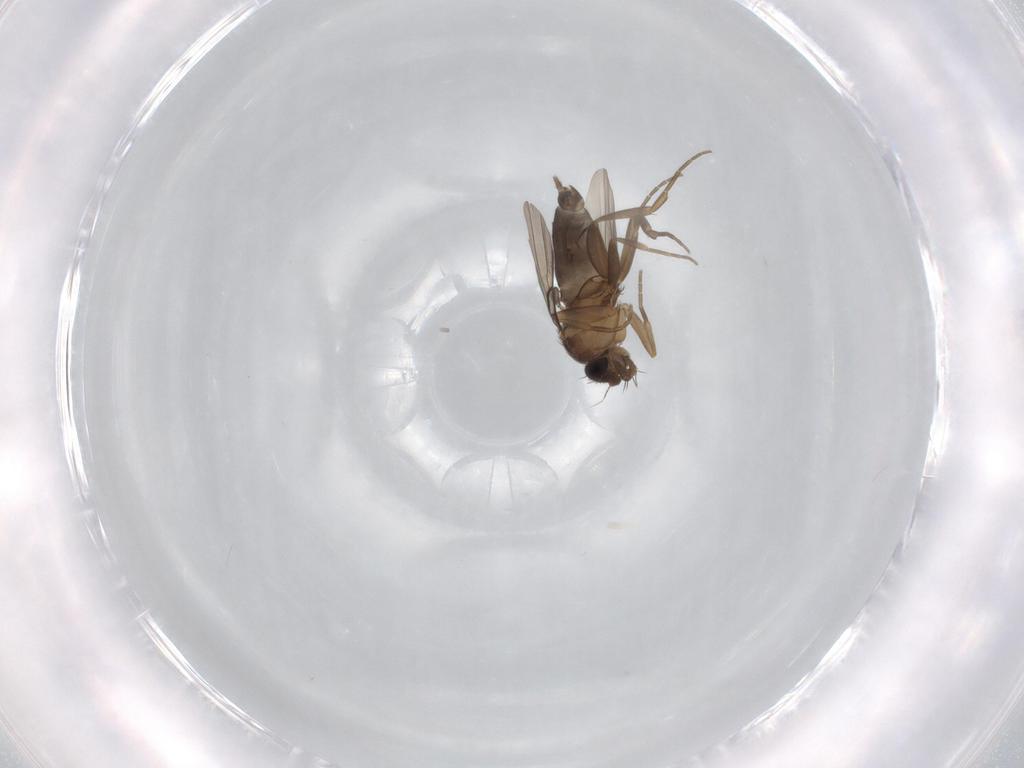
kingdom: Animalia
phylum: Arthropoda
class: Insecta
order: Diptera
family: Phoridae
